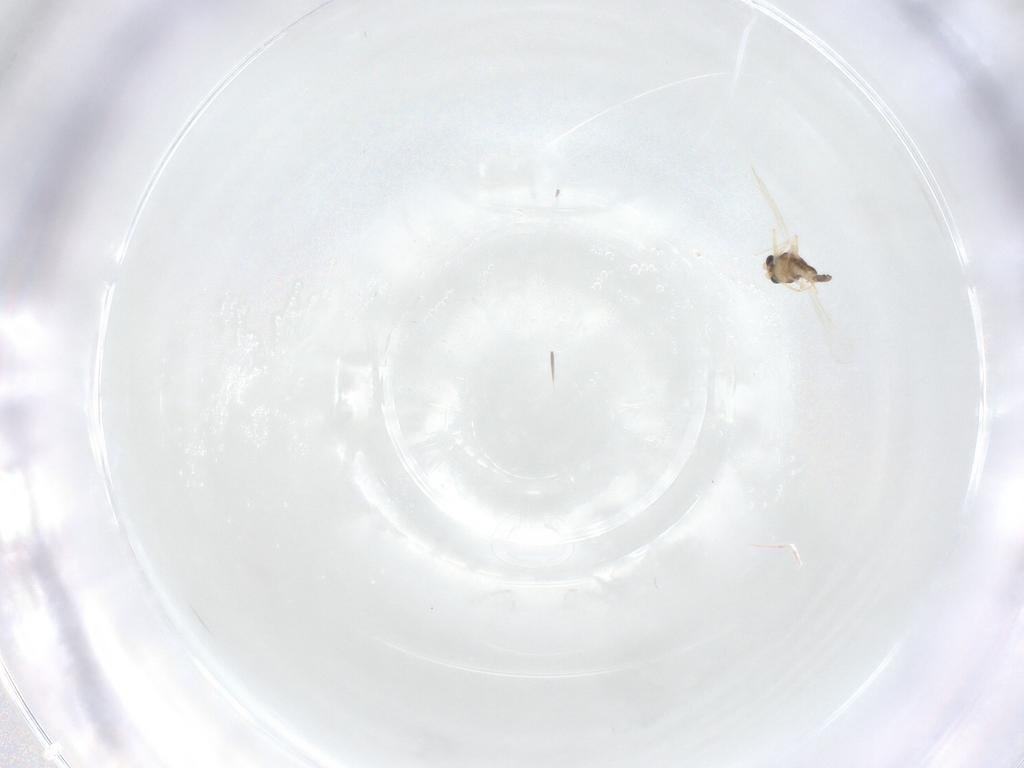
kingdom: Animalia
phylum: Arthropoda
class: Insecta
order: Diptera
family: Chironomidae
